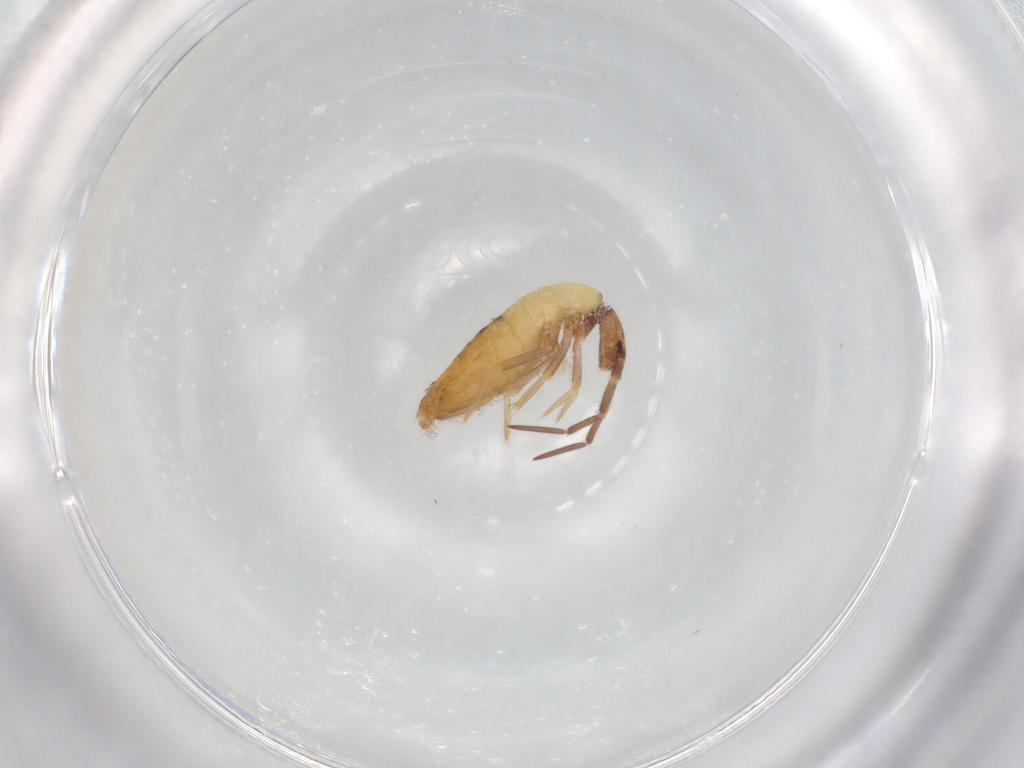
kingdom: Animalia
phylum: Arthropoda
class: Collembola
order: Entomobryomorpha
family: Entomobryidae
